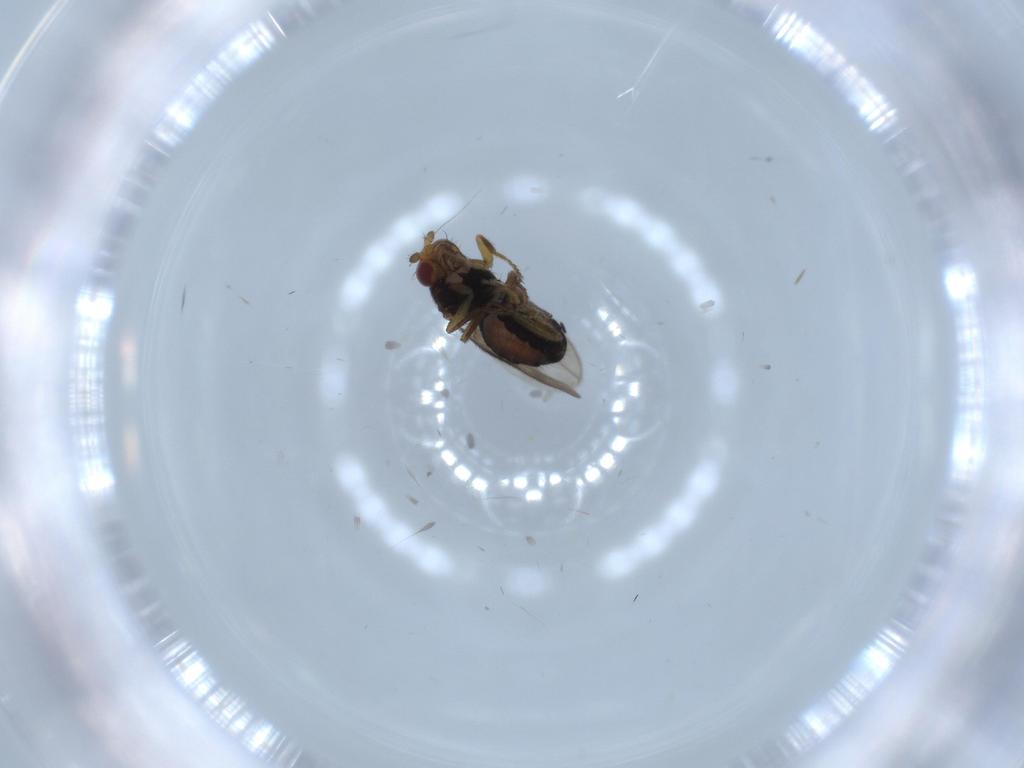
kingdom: Animalia
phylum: Arthropoda
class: Insecta
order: Diptera
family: Sphaeroceridae
